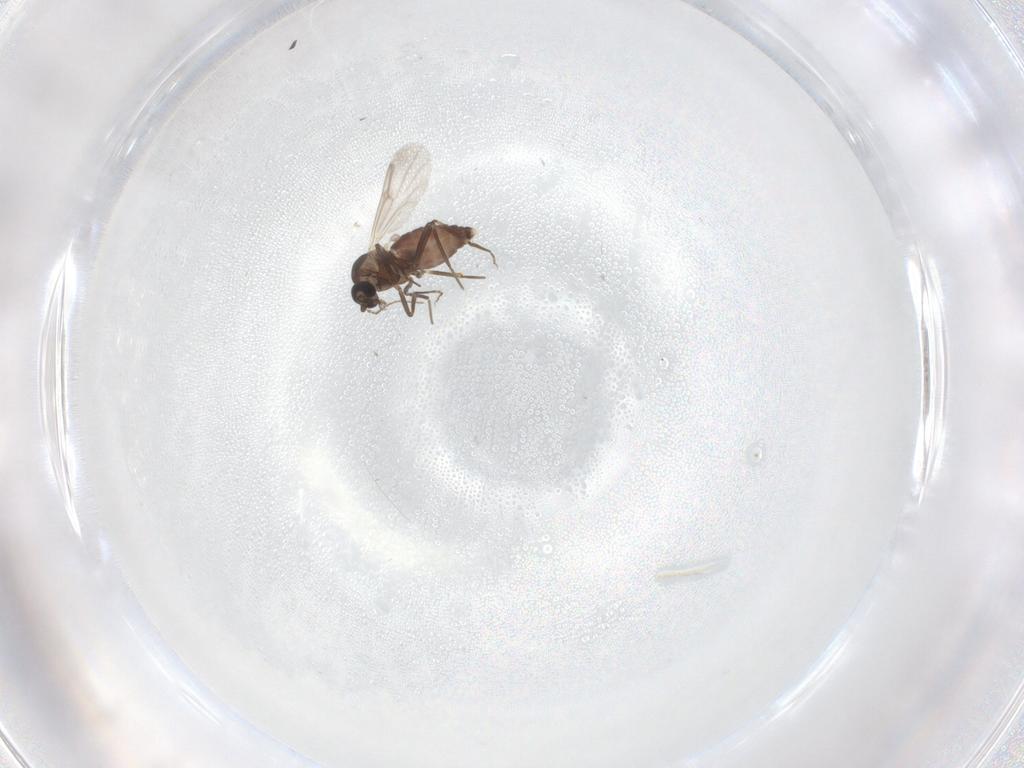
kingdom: Animalia
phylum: Arthropoda
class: Insecta
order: Diptera
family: Ceratopogonidae
